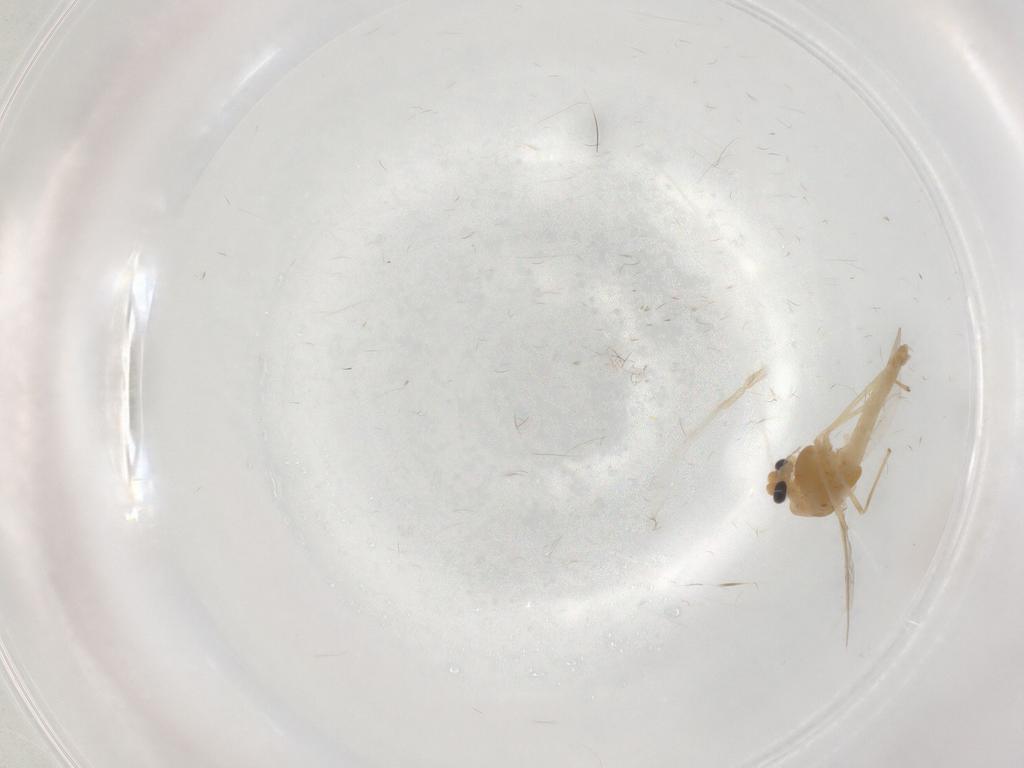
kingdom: Animalia
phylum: Arthropoda
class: Insecta
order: Diptera
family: Chironomidae
